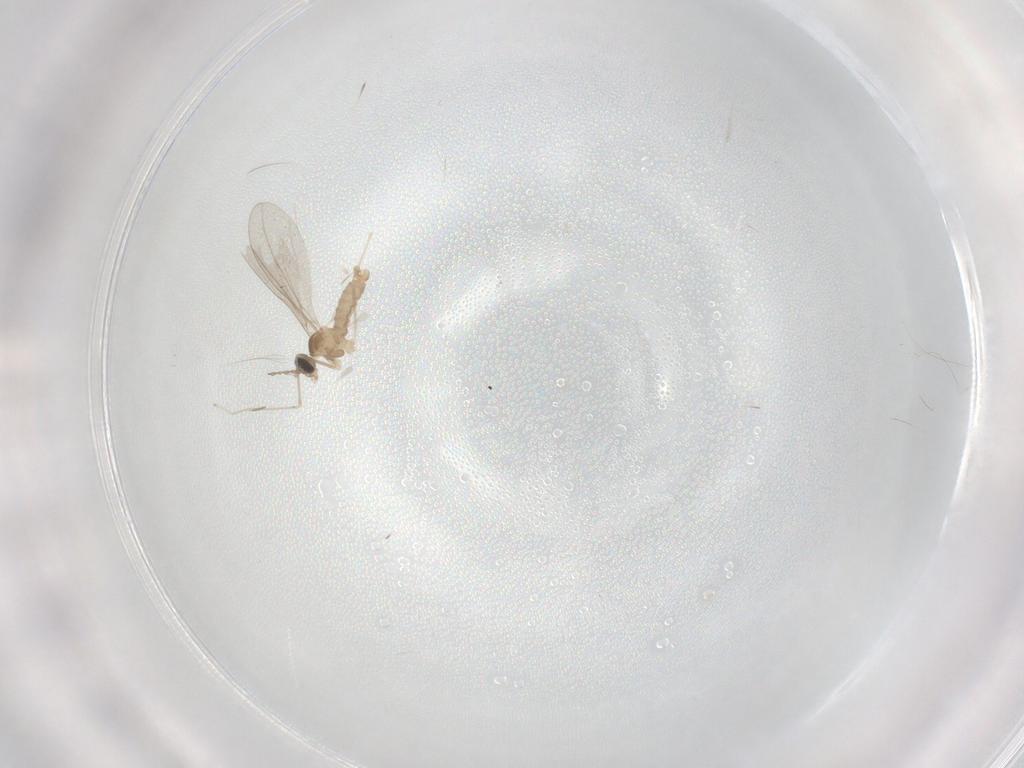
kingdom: Animalia
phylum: Arthropoda
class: Insecta
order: Diptera
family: Cecidomyiidae
